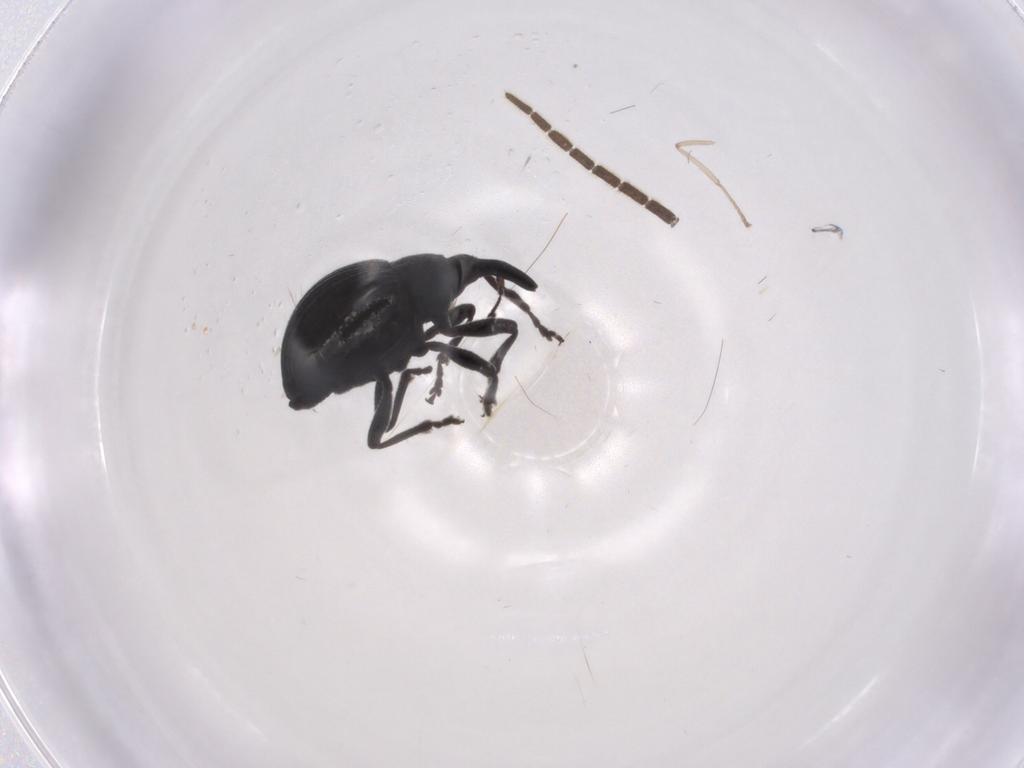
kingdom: Animalia
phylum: Arthropoda
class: Insecta
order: Coleoptera
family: Brentidae
